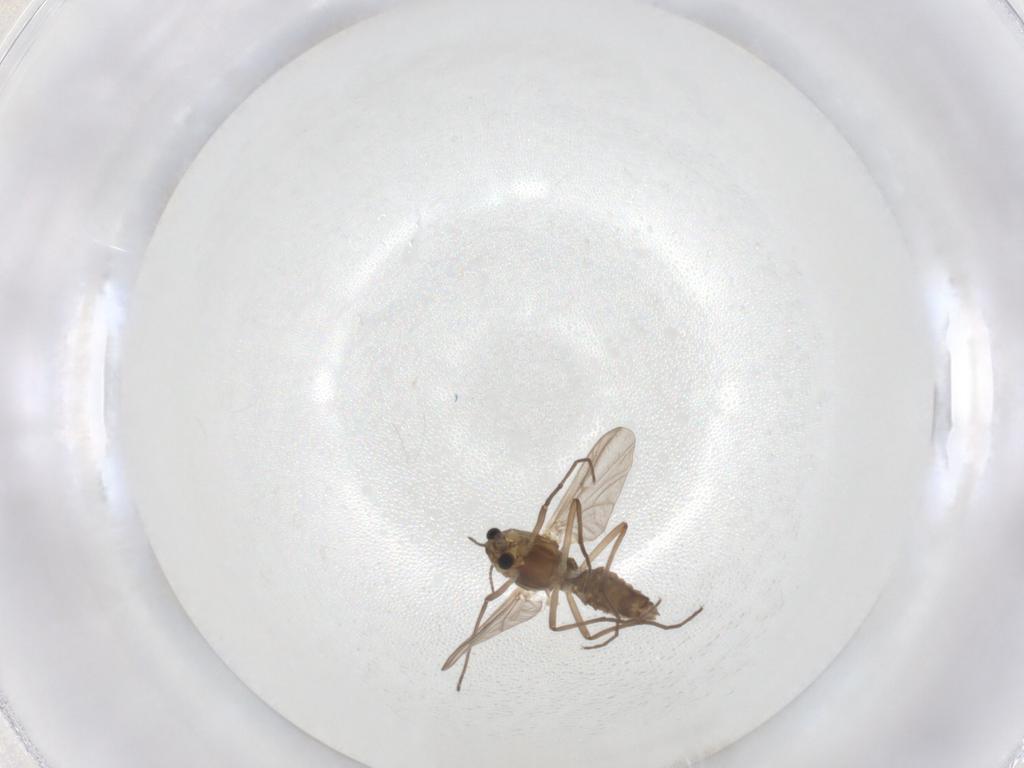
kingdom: Animalia
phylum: Arthropoda
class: Insecta
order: Diptera
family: Chironomidae
